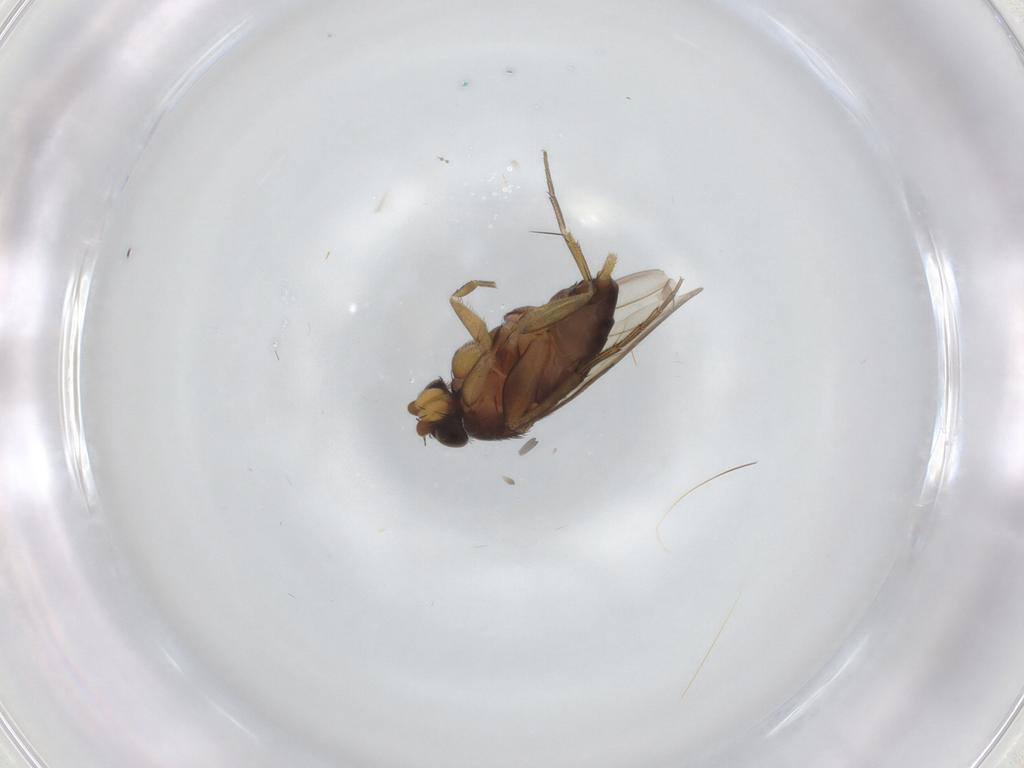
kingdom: Animalia
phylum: Arthropoda
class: Insecta
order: Diptera
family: Phoridae
